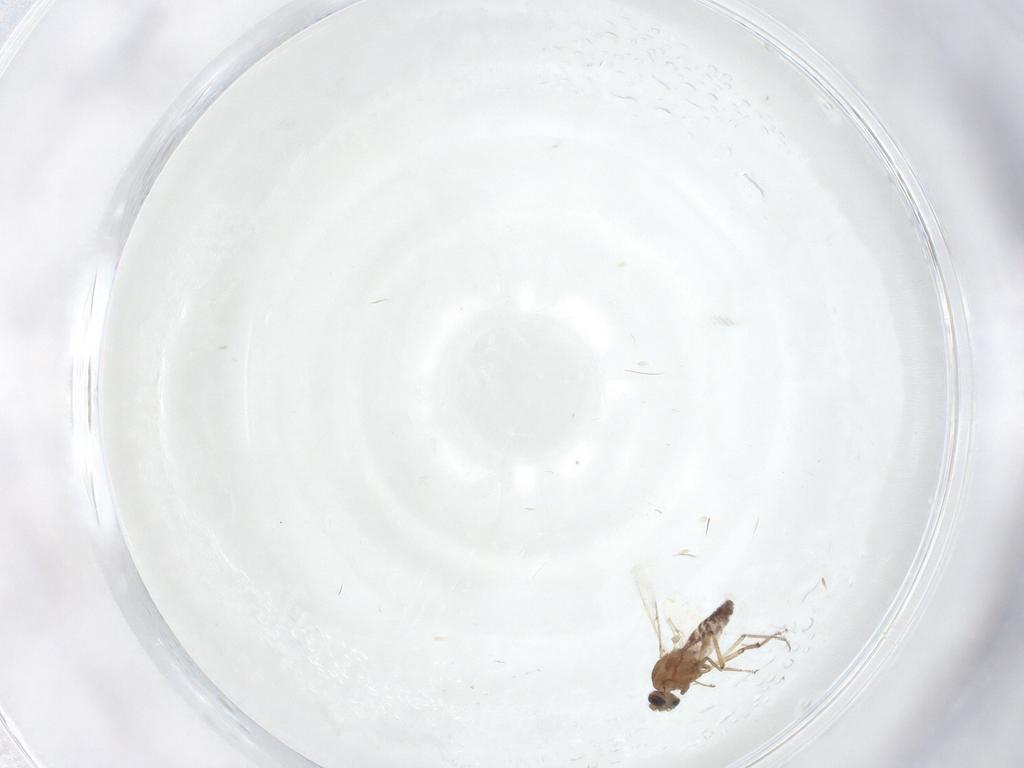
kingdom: Animalia
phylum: Arthropoda
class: Insecta
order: Diptera
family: Ceratopogonidae
